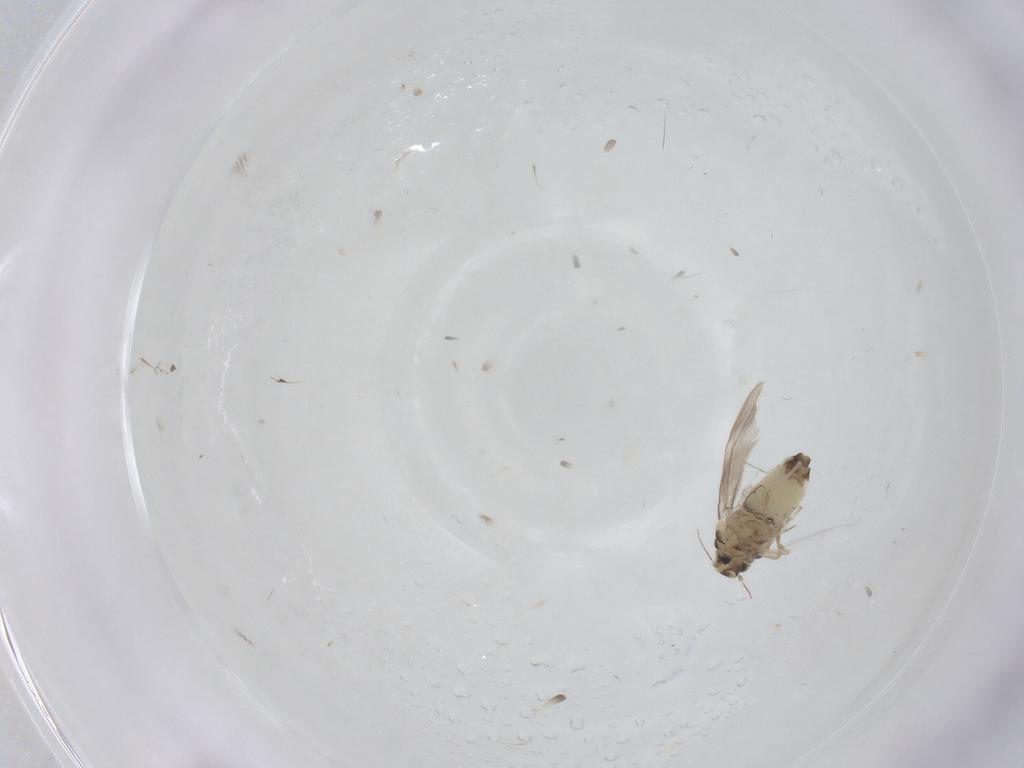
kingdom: Animalia
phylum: Arthropoda
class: Insecta
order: Hemiptera
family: Aleyrodidae
